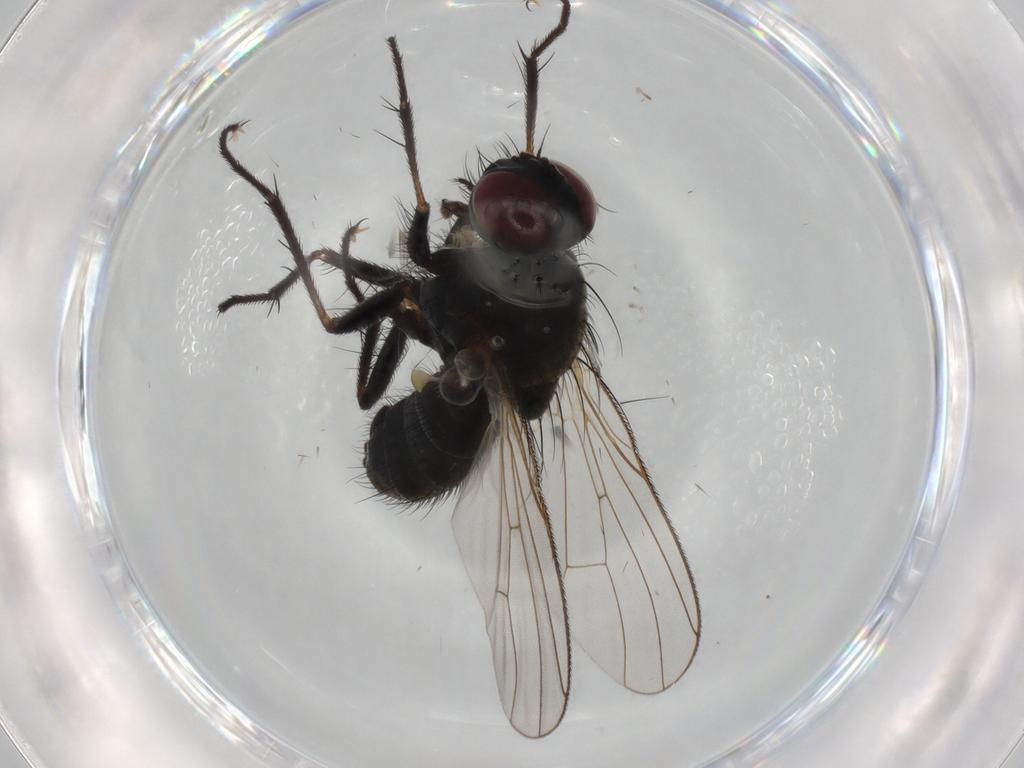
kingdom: Animalia
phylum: Arthropoda
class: Insecta
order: Diptera
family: Muscidae
